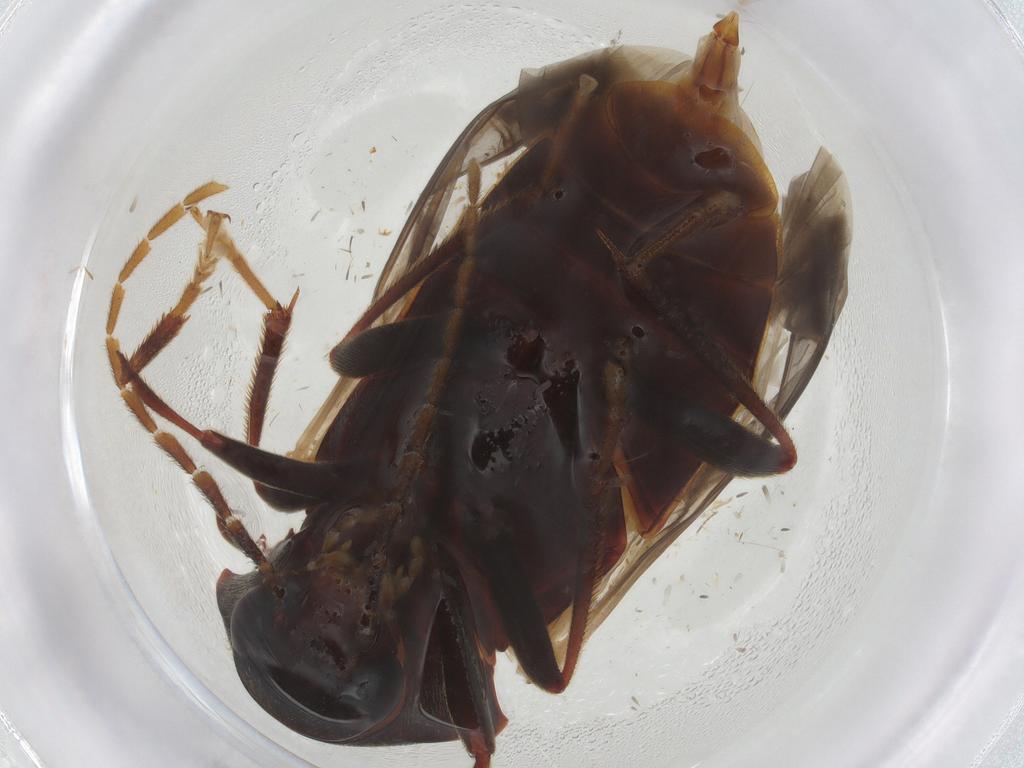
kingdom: Animalia
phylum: Arthropoda
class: Insecta
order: Coleoptera
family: Ptilodactylidae
